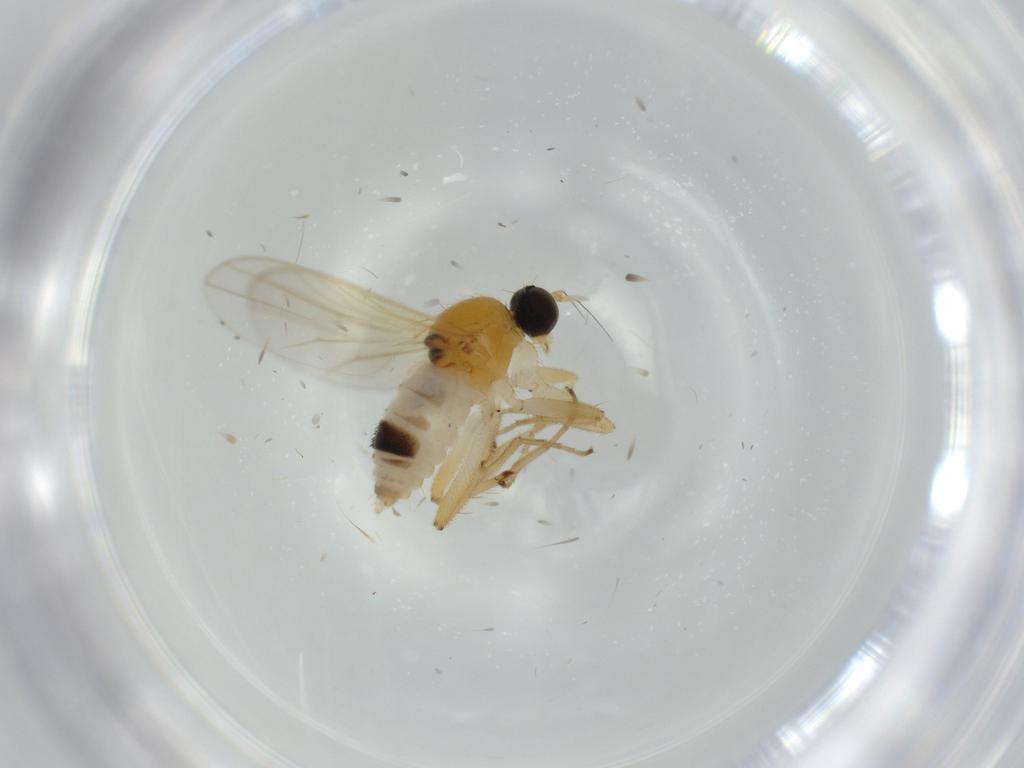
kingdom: Animalia
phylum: Arthropoda
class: Insecta
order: Diptera
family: Hybotidae
